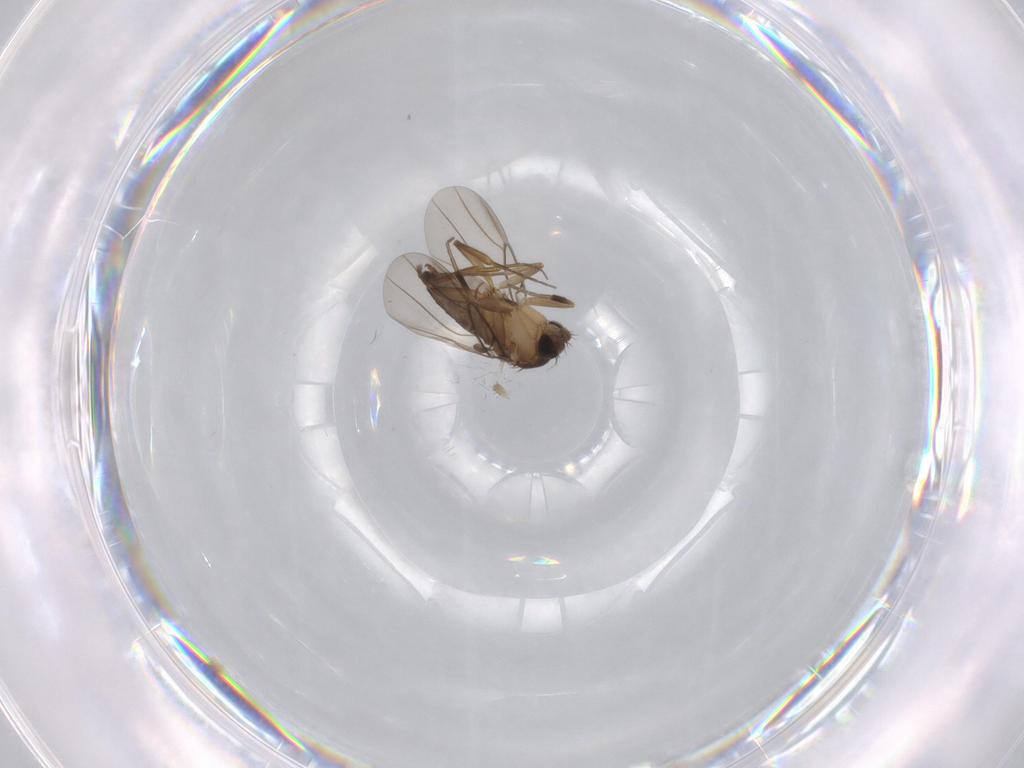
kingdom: Animalia
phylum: Arthropoda
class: Insecta
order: Diptera
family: Phoridae
